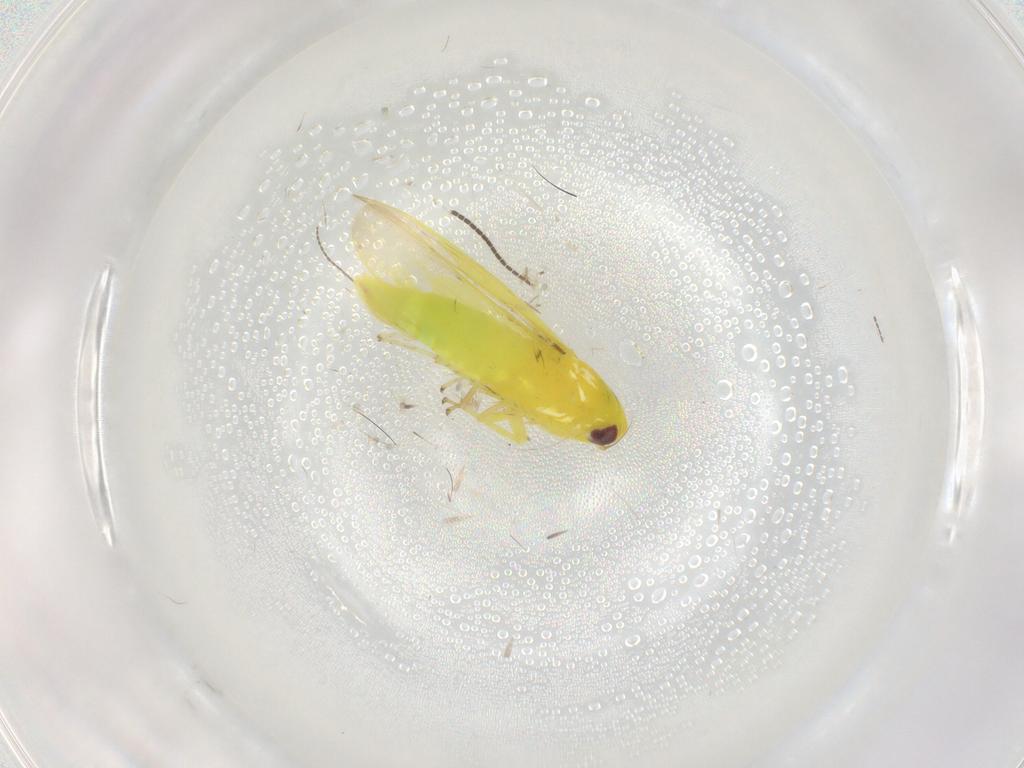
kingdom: Animalia
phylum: Arthropoda
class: Insecta
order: Hemiptera
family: Cicadellidae
